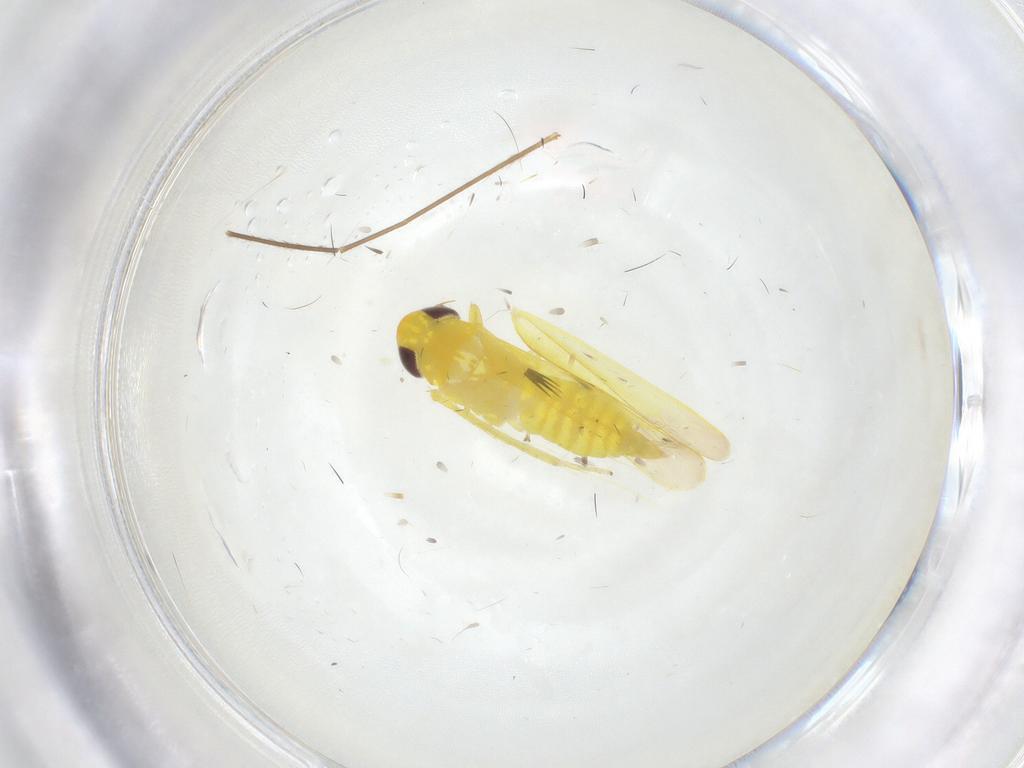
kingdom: Animalia
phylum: Arthropoda
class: Insecta
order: Hemiptera
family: Cicadellidae
